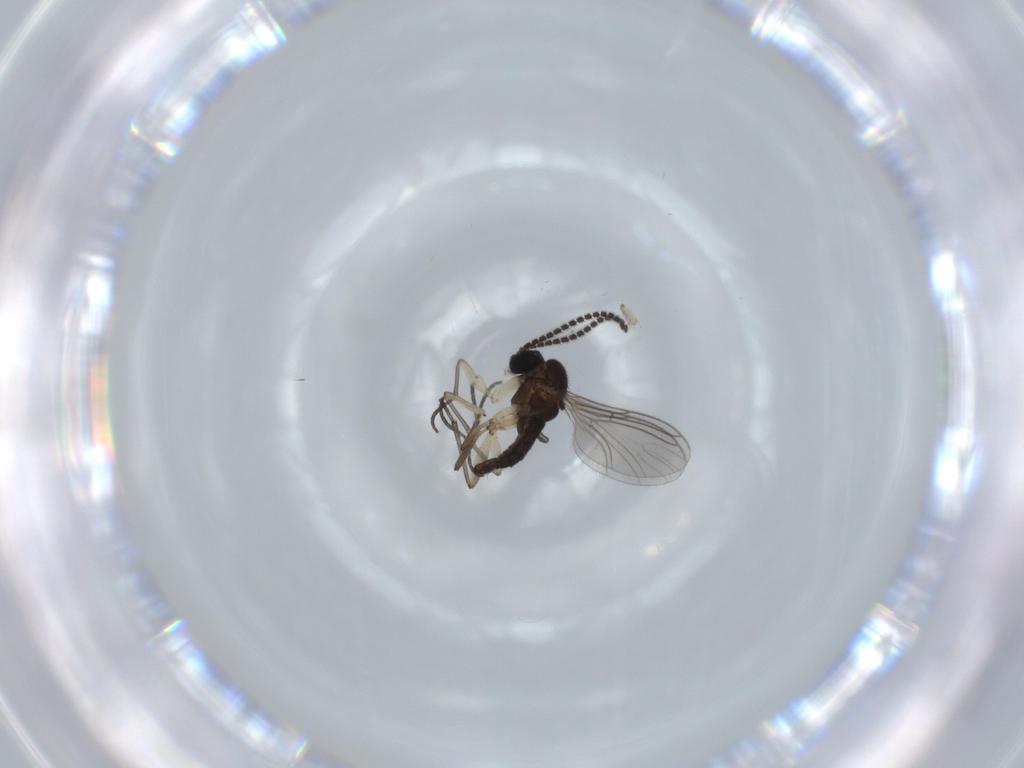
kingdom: Animalia
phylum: Arthropoda
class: Insecta
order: Diptera
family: Sciaridae
